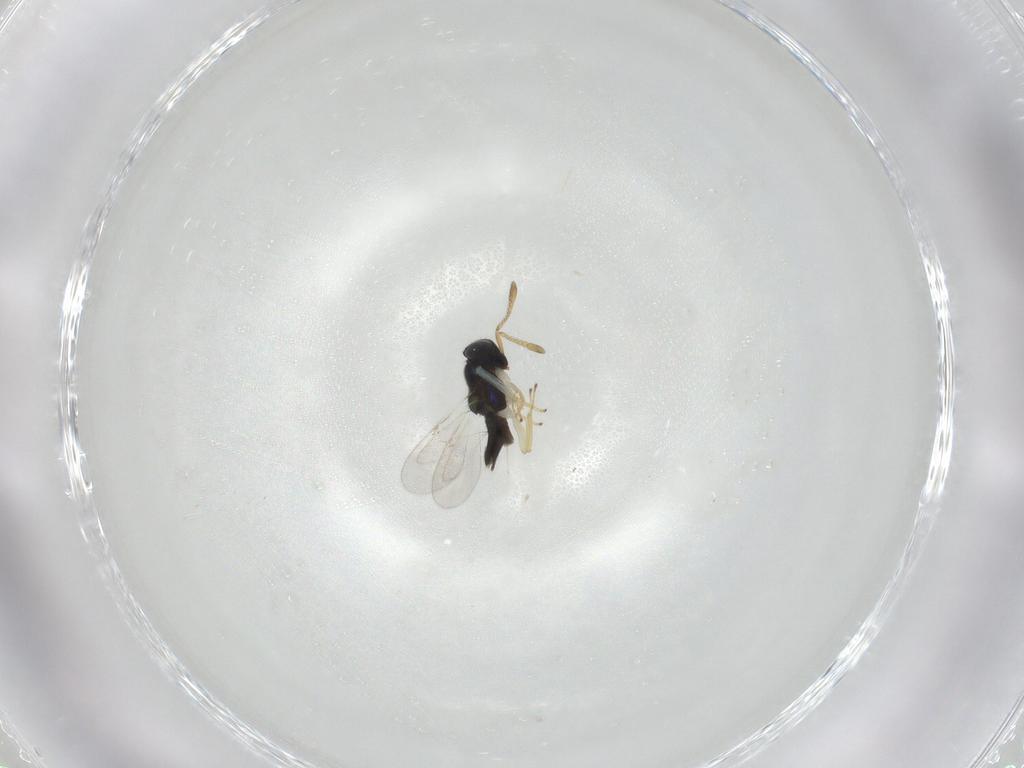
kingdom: Animalia
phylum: Arthropoda
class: Insecta
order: Hymenoptera
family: Encyrtidae
